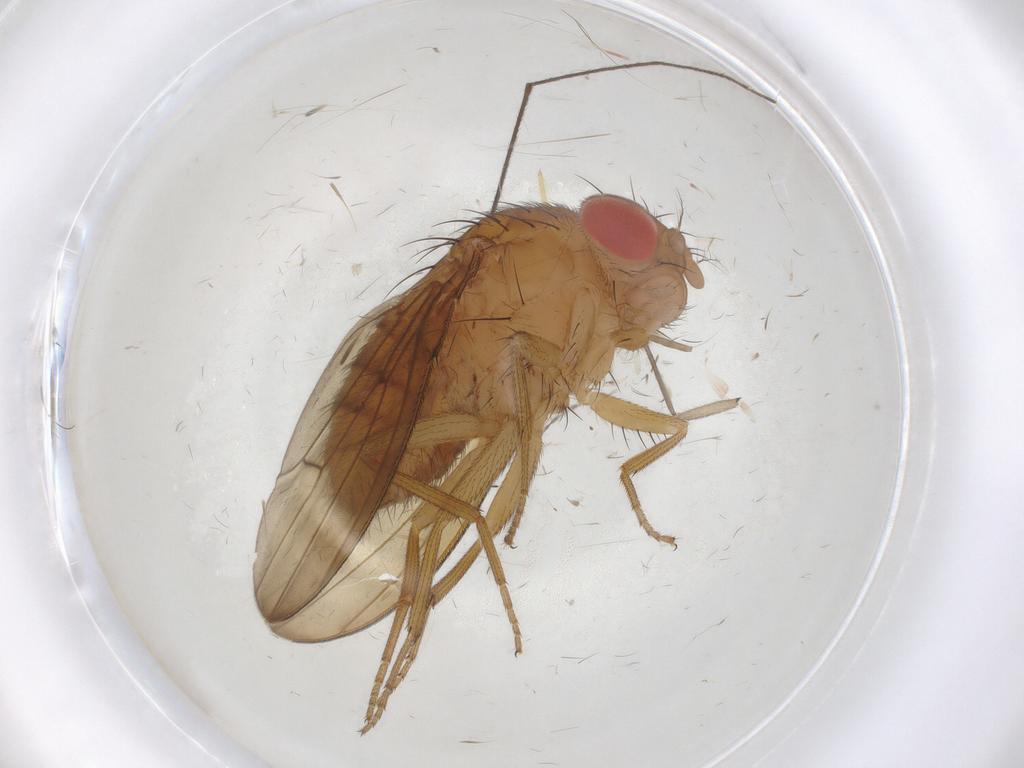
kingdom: Animalia
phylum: Arthropoda
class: Insecta
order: Diptera
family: Drosophilidae
